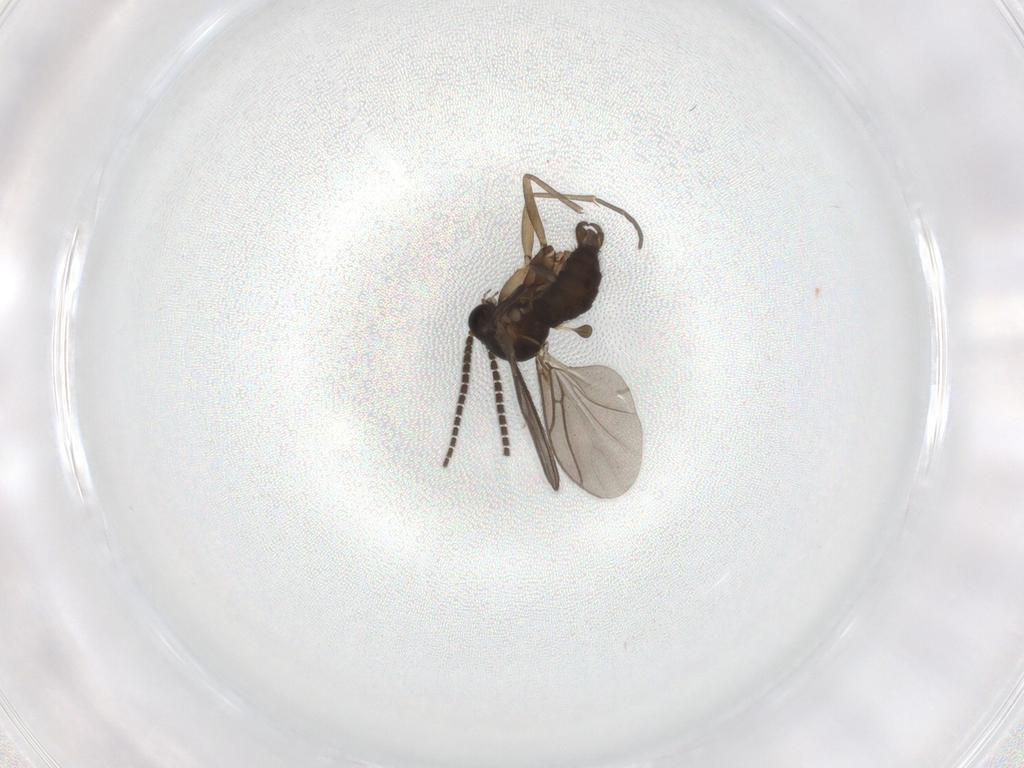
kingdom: Animalia
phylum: Arthropoda
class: Insecta
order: Diptera
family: Sciaridae
